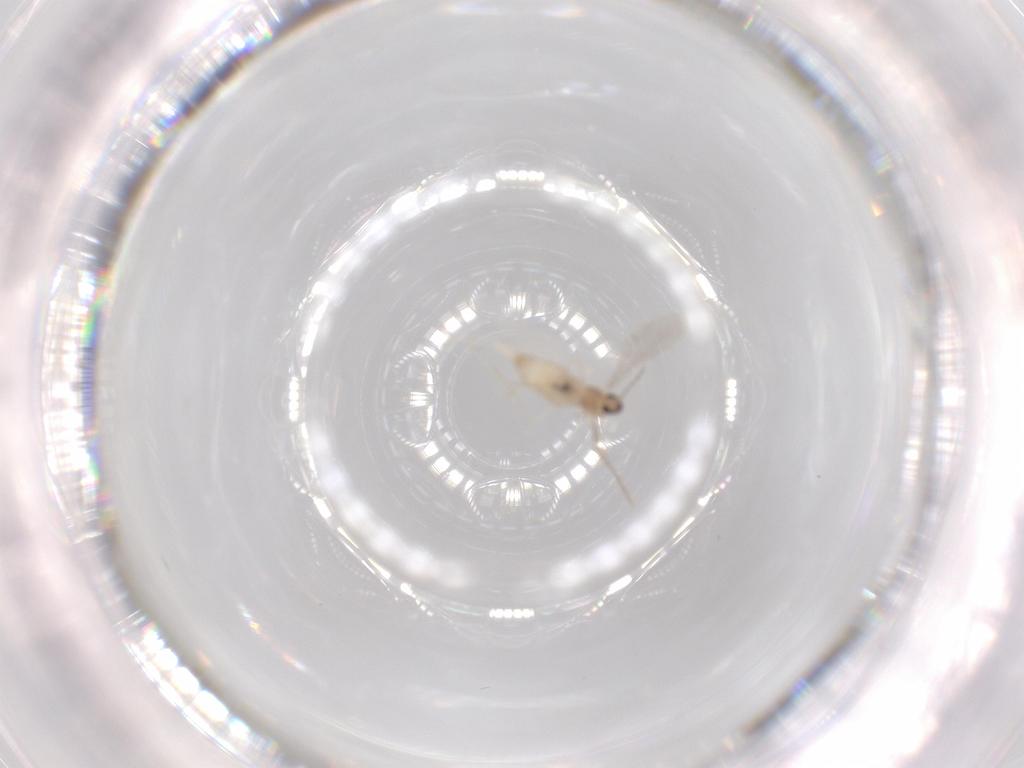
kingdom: Animalia
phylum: Arthropoda
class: Insecta
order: Diptera
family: Cecidomyiidae
